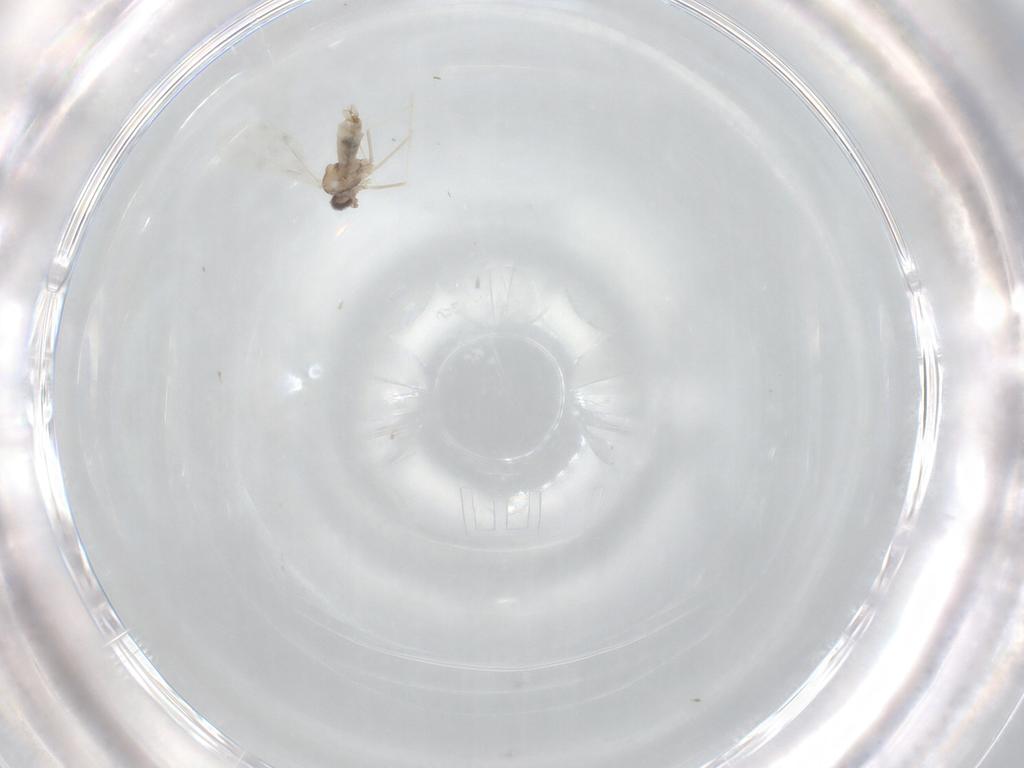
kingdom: Animalia
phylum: Arthropoda
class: Insecta
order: Diptera
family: Cecidomyiidae
